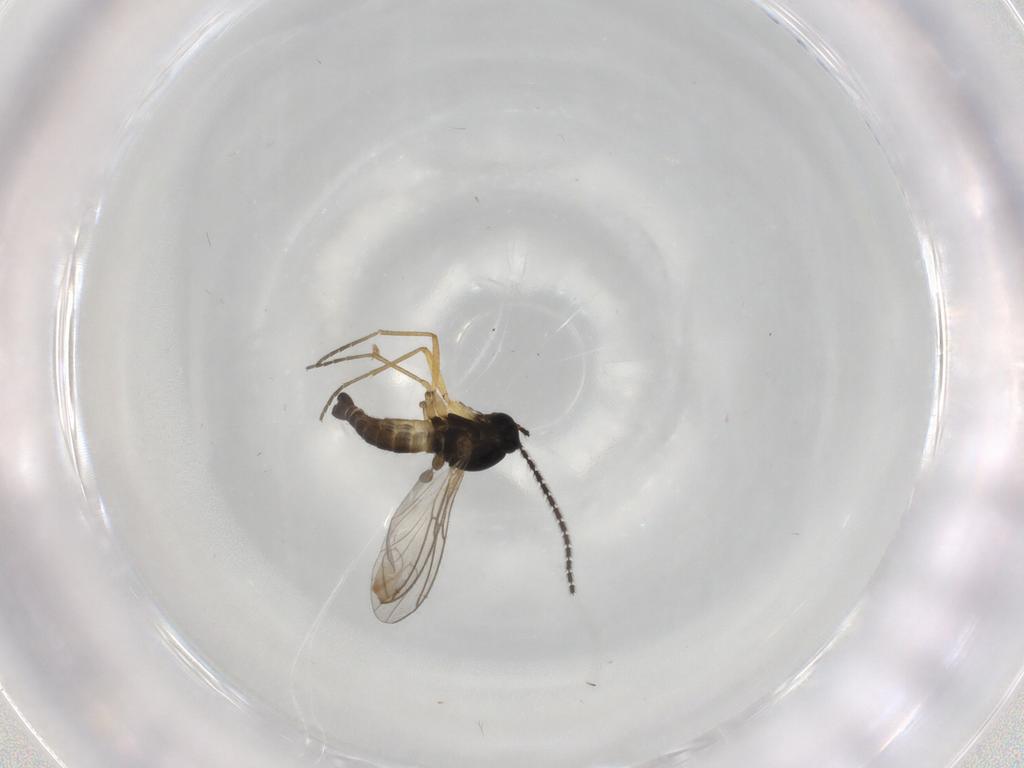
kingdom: Animalia
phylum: Arthropoda
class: Insecta
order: Diptera
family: Sciaridae
